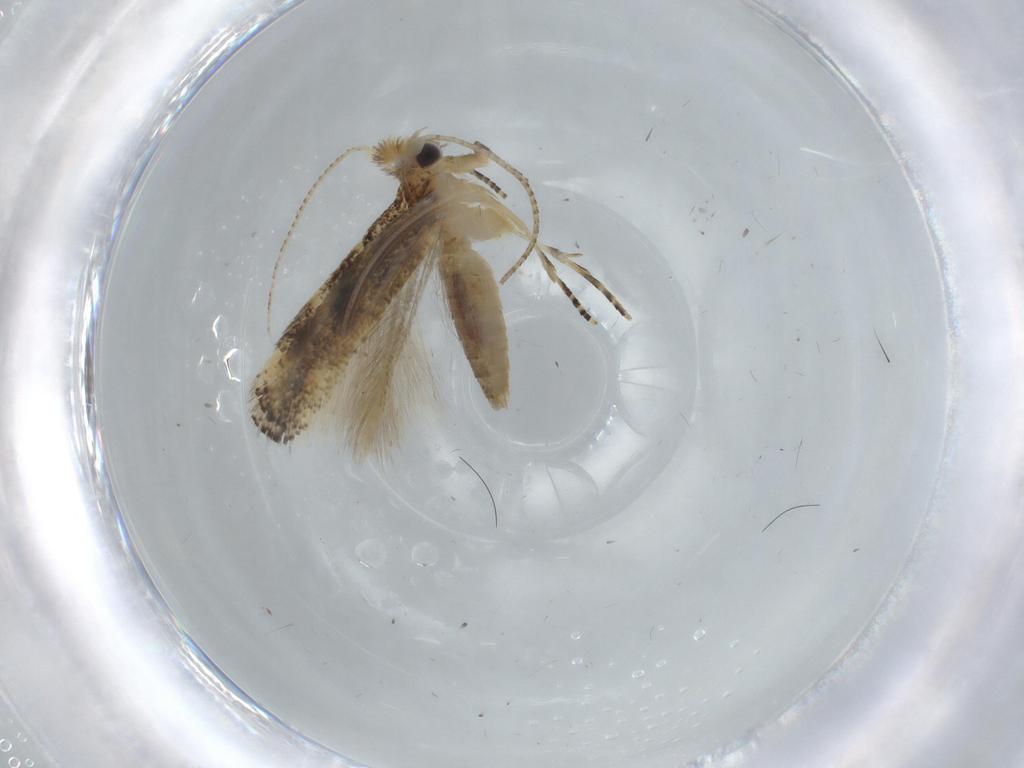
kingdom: Animalia
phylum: Arthropoda
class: Insecta
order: Lepidoptera
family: Bucculatricidae
